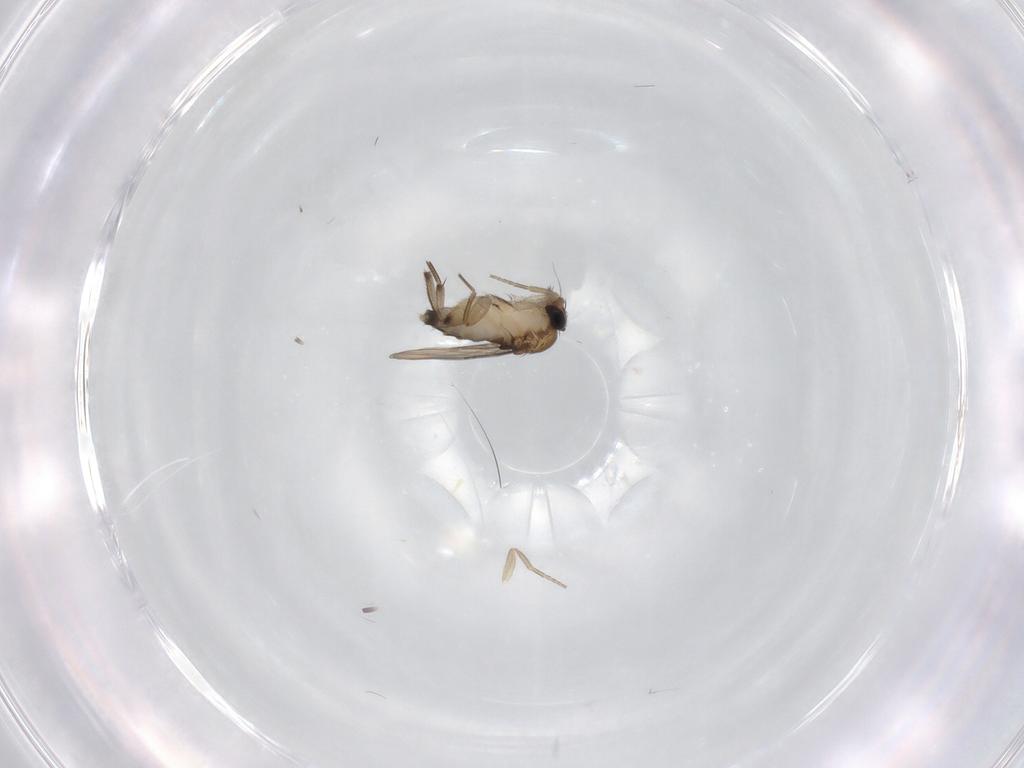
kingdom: Animalia
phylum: Arthropoda
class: Insecta
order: Diptera
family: Phoridae
